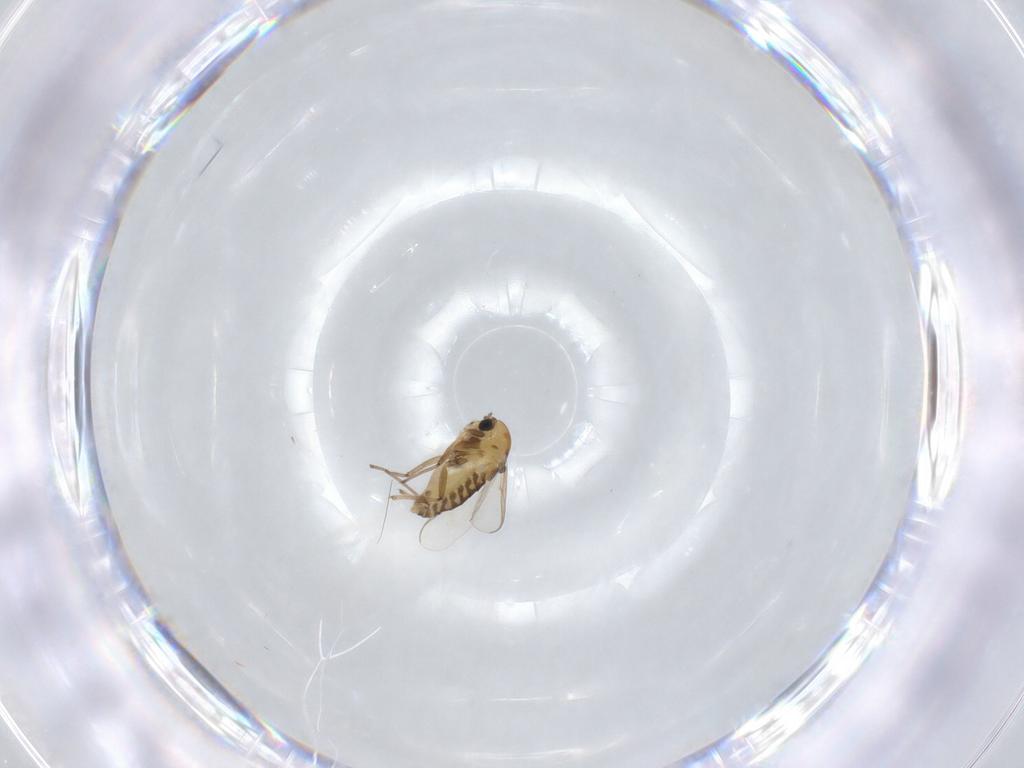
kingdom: Animalia
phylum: Arthropoda
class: Insecta
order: Diptera
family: Chironomidae
